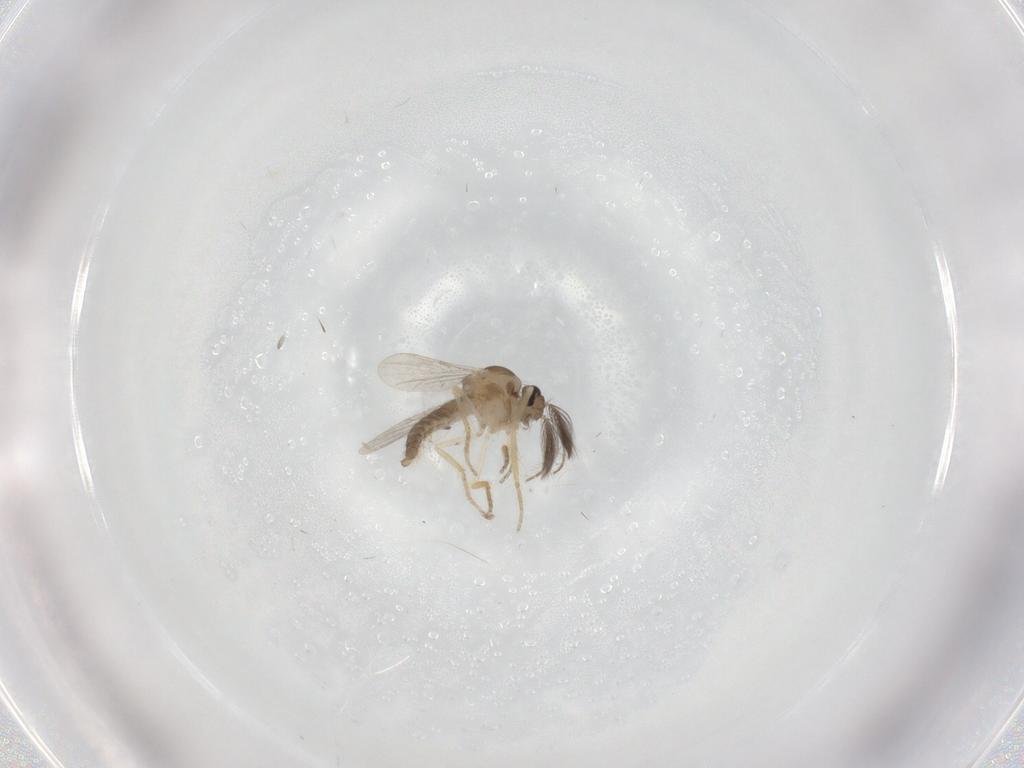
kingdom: Animalia
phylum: Arthropoda
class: Insecta
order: Diptera
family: Ceratopogonidae
